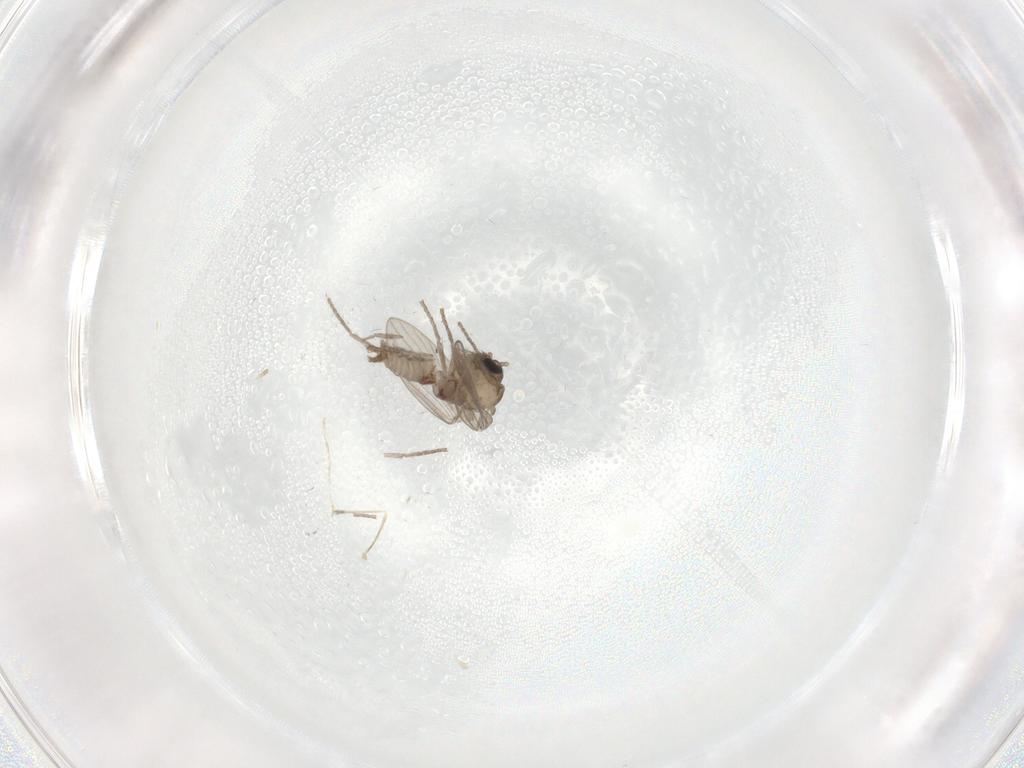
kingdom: Animalia
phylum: Arthropoda
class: Insecta
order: Diptera
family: Psychodidae
